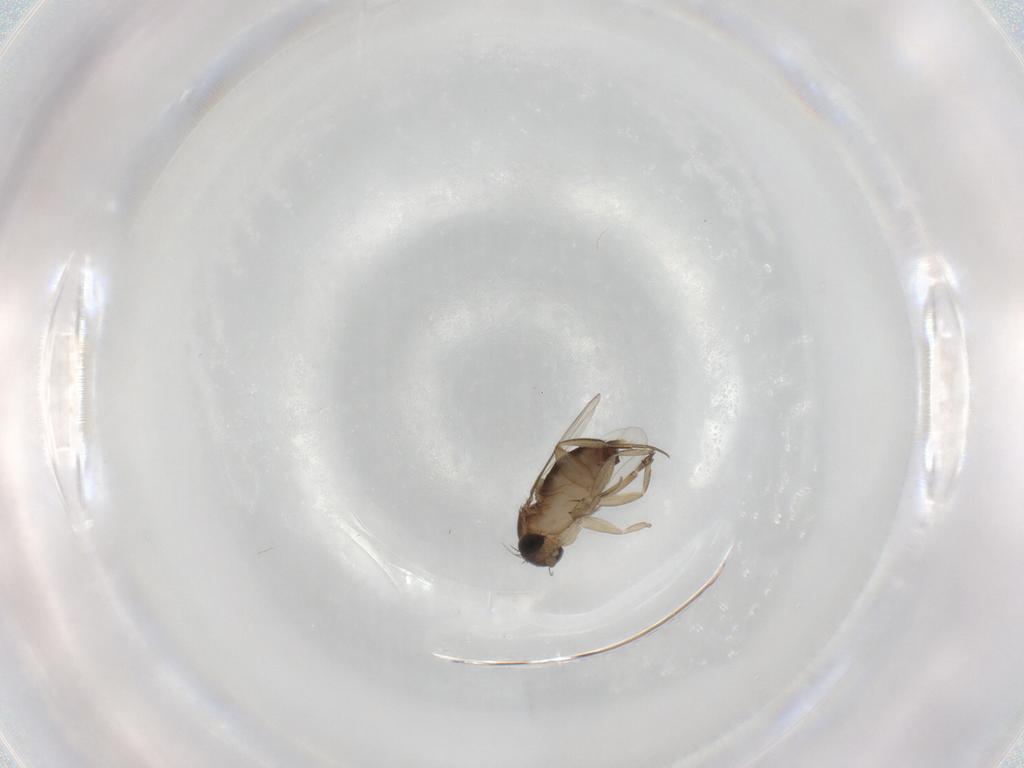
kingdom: Animalia
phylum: Arthropoda
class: Insecta
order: Diptera
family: Phoridae
